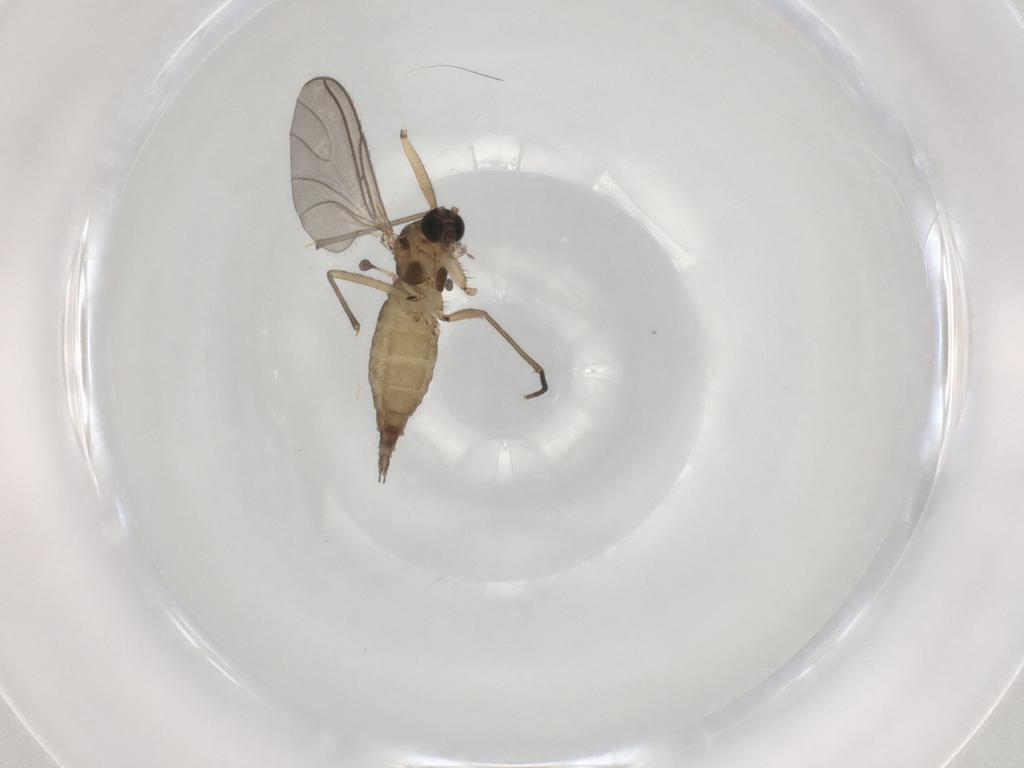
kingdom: Animalia
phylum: Arthropoda
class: Insecta
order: Diptera
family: Sciaridae
